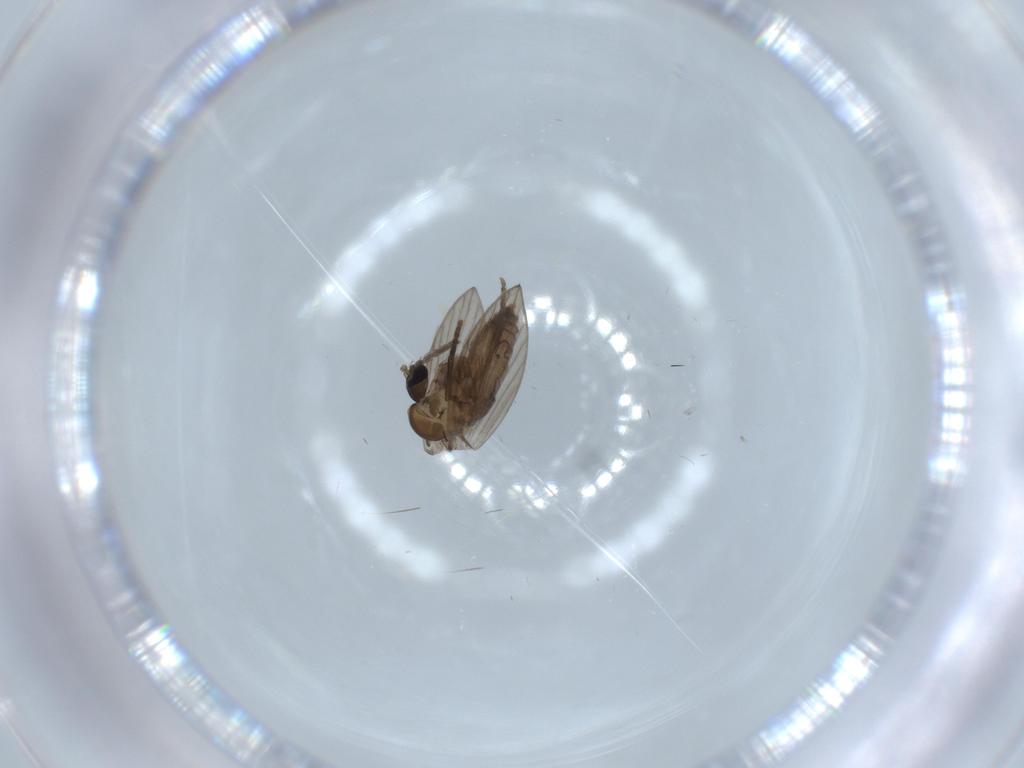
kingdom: Animalia
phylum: Arthropoda
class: Insecta
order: Diptera
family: Psychodidae
